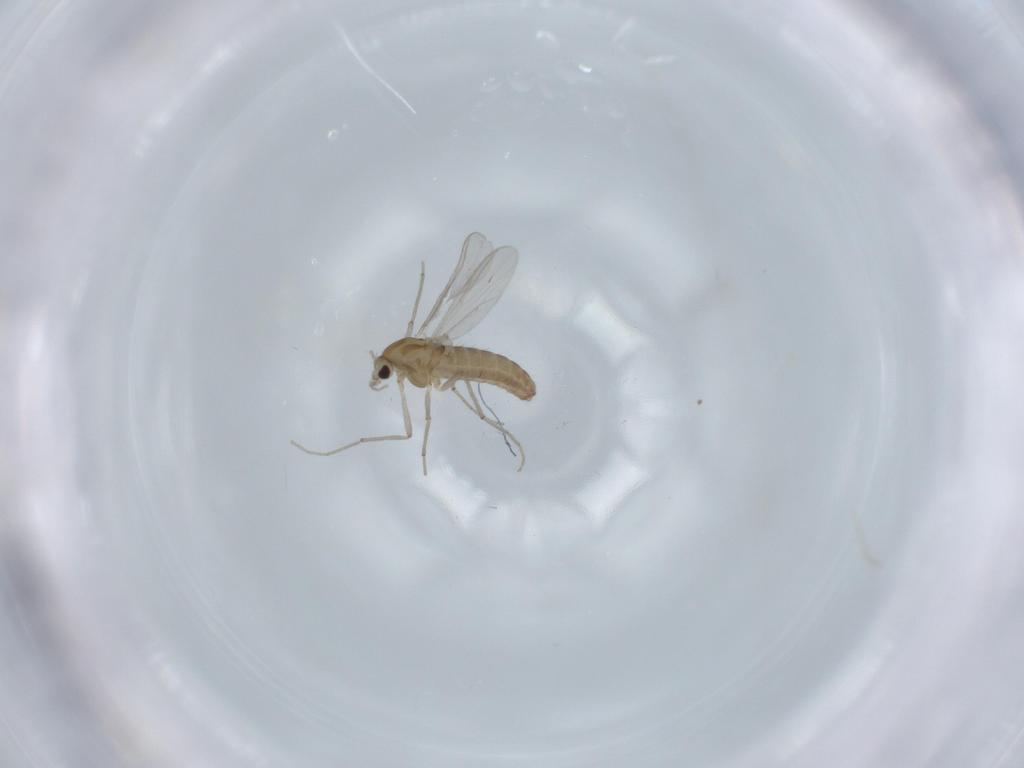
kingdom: Animalia
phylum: Arthropoda
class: Insecta
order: Diptera
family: Chironomidae
